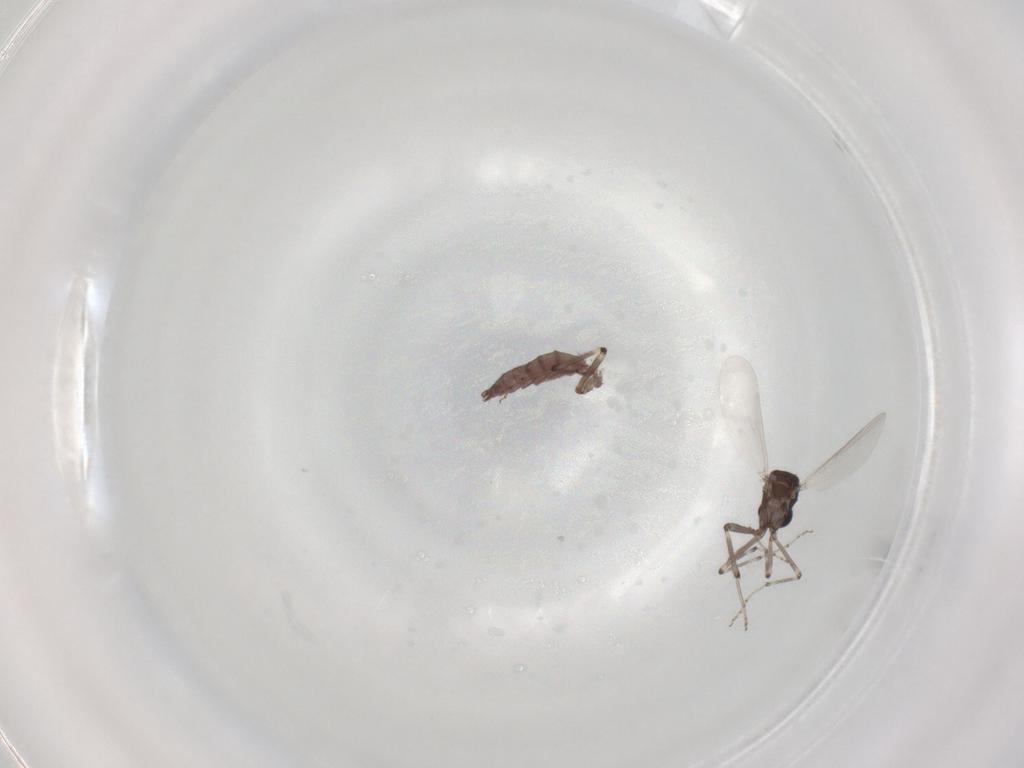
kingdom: Animalia
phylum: Arthropoda
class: Insecta
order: Diptera
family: Ceratopogonidae
